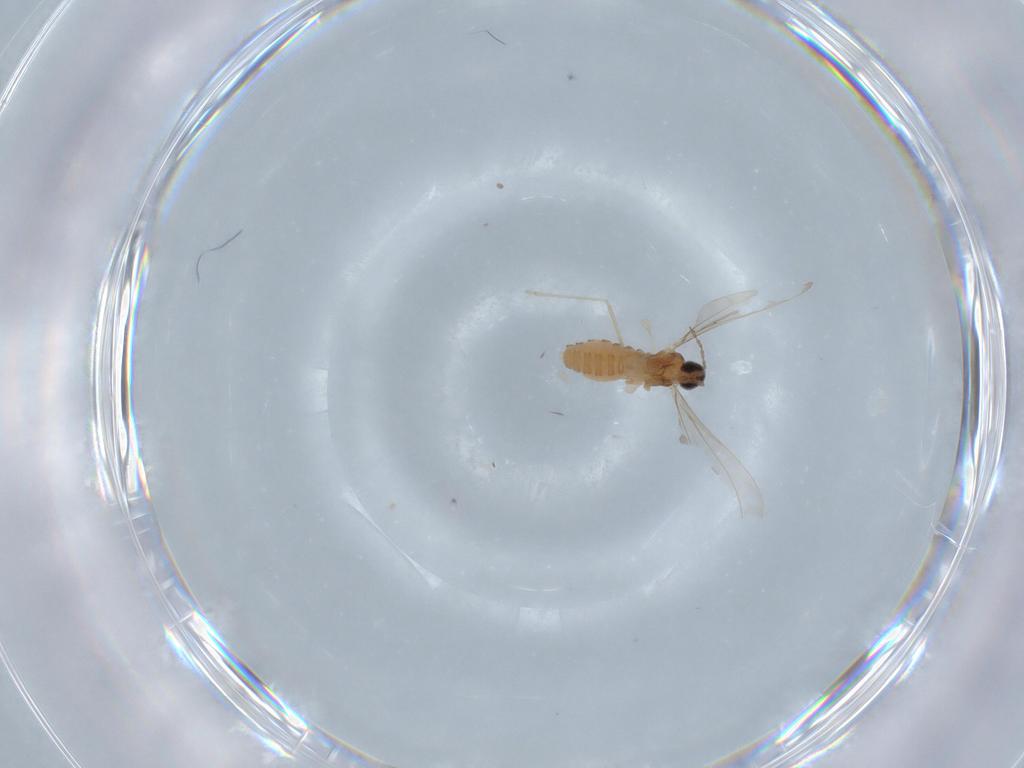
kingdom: Animalia
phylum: Arthropoda
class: Insecta
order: Diptera
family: Cecidomyiidae
